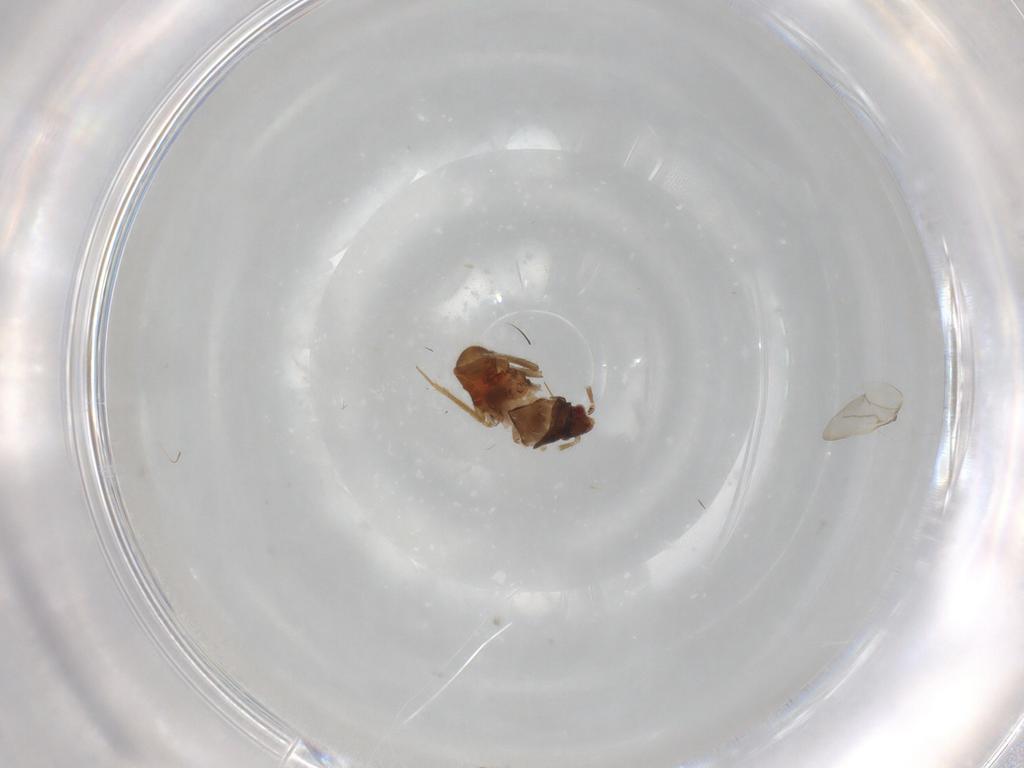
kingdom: Animalia
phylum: Arthropoda
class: Insecta
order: Hemiptera
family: Ceratocombidae
